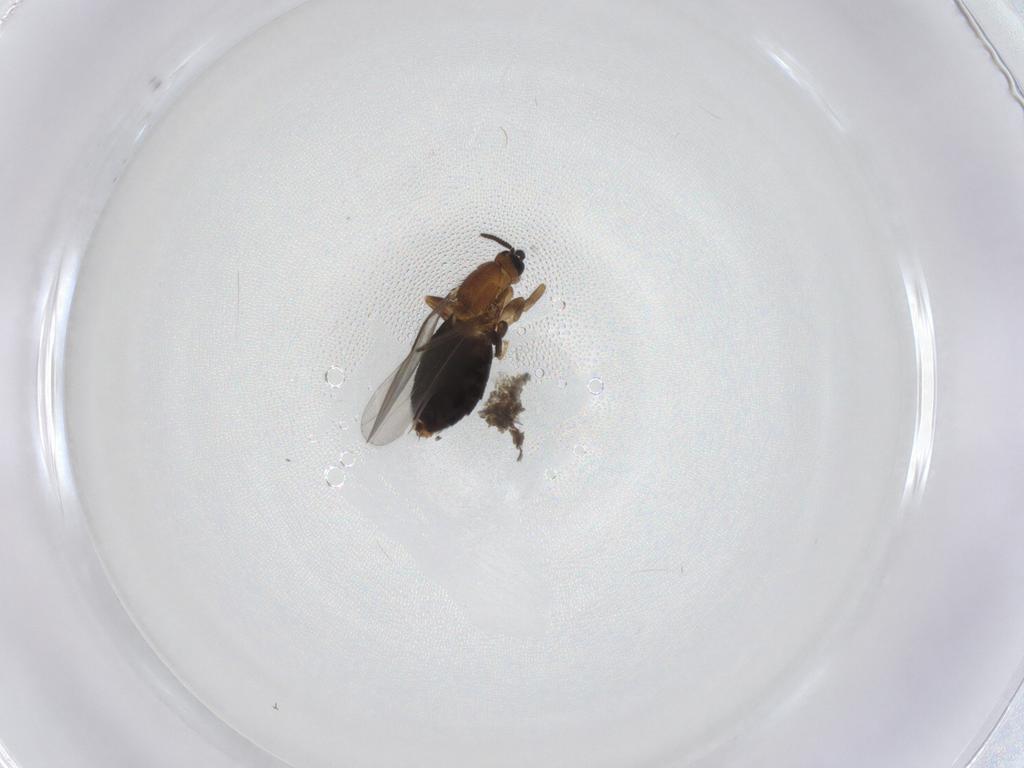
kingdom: Animalia
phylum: Arthropoda
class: Insecta
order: Diptera
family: Scatopsidae
